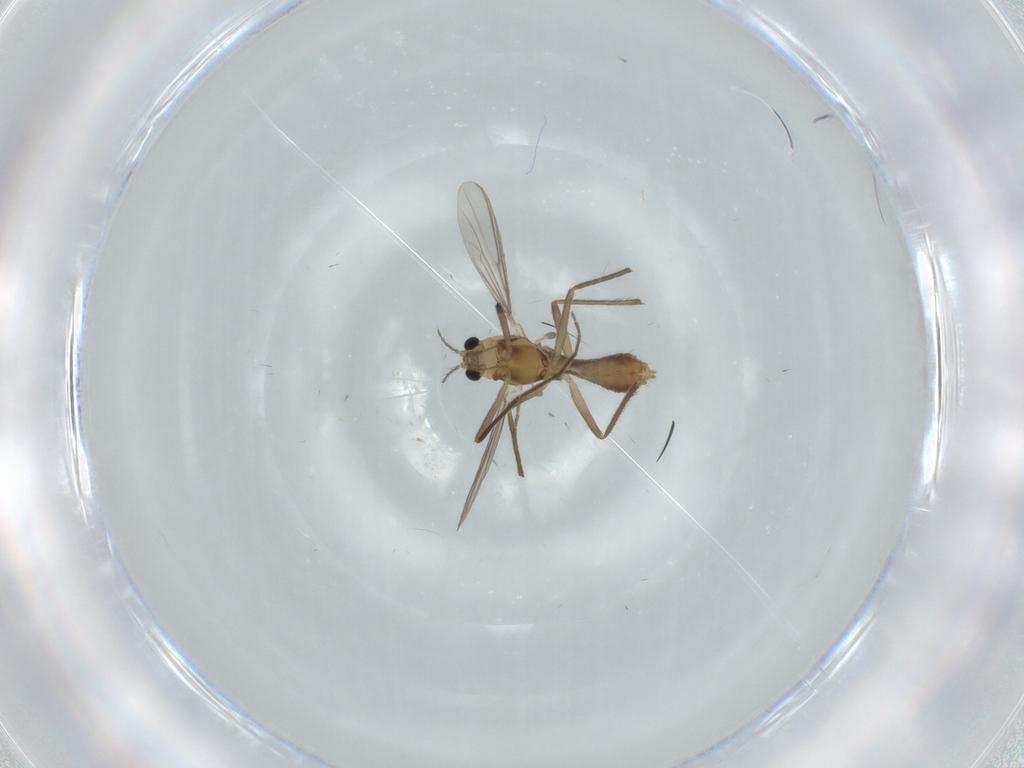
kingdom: Animalia
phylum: Arthropoda
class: Insecta
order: Diptera
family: Chironomidae
